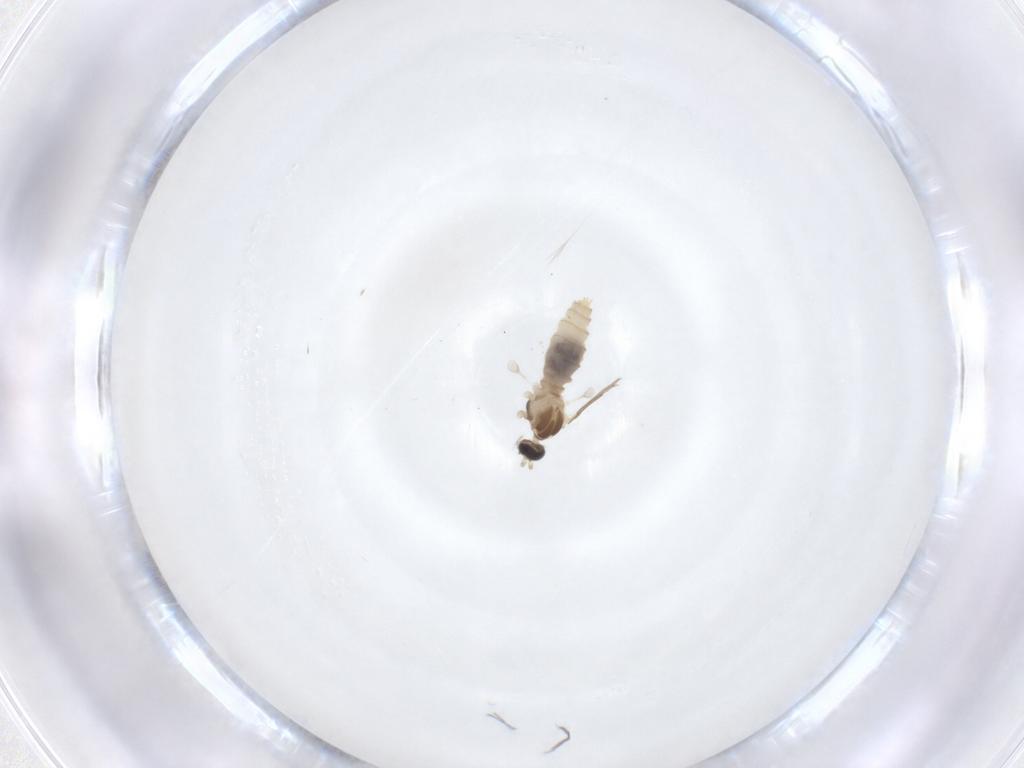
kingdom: Animalia
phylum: Arthropoda
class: Insecta
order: Diptera
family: Cecidomyiidae
